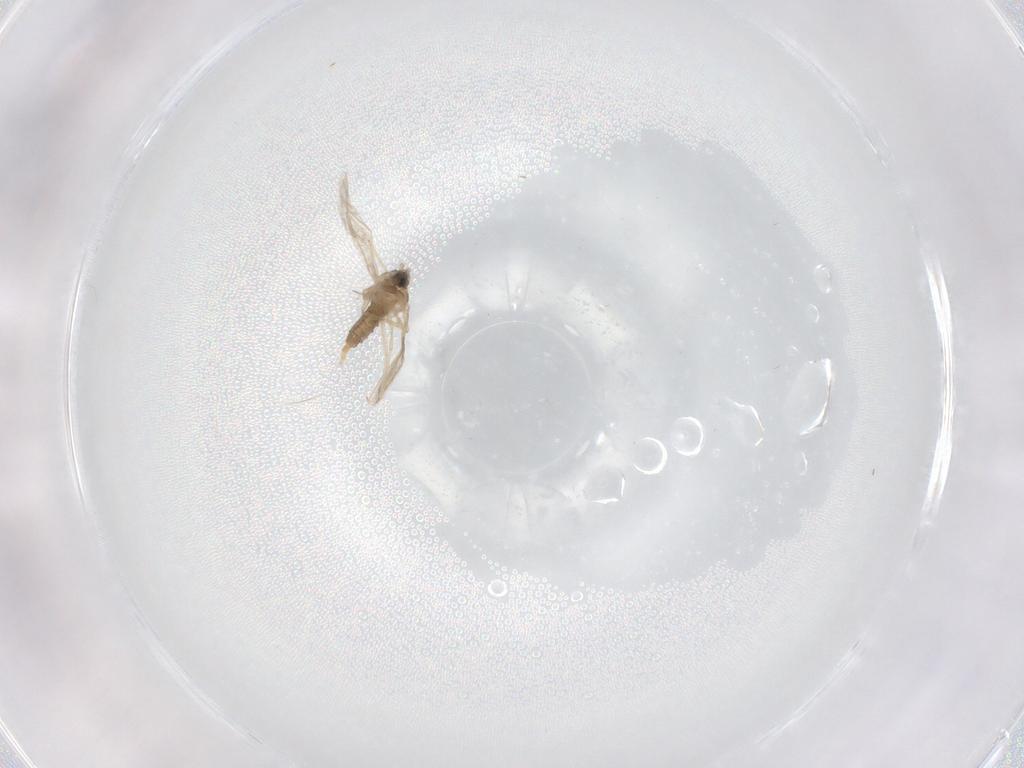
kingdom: Animalia
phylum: Arthropoda
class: Insecta
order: Diptera
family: Cecidomyiidae
